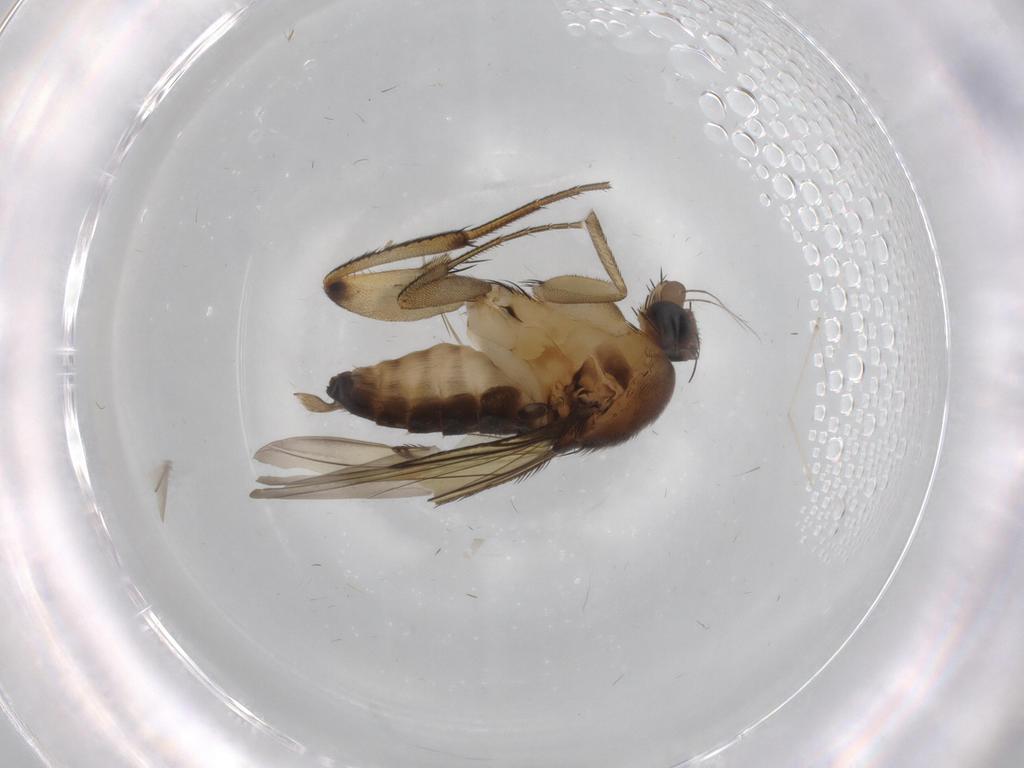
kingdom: Animalia
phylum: Arthropoda
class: Insecta
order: Diptera
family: Phoridae
